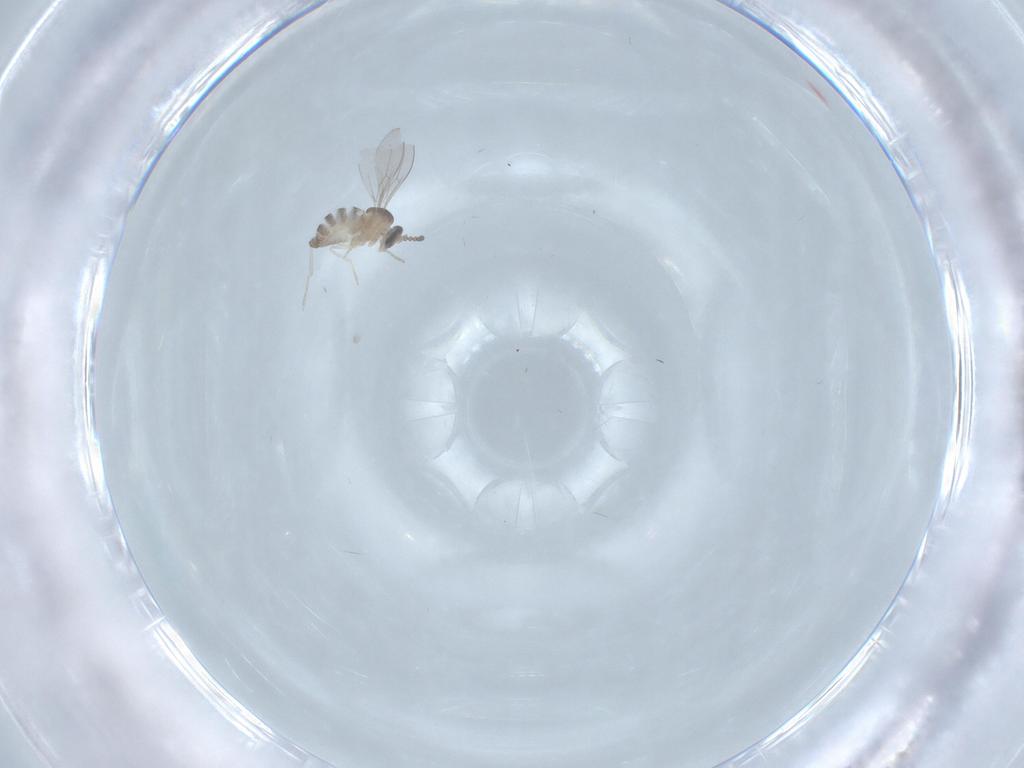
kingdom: Animalia
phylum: Arthropoda
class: Insecta
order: Diptera
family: Cecidomyiidae
